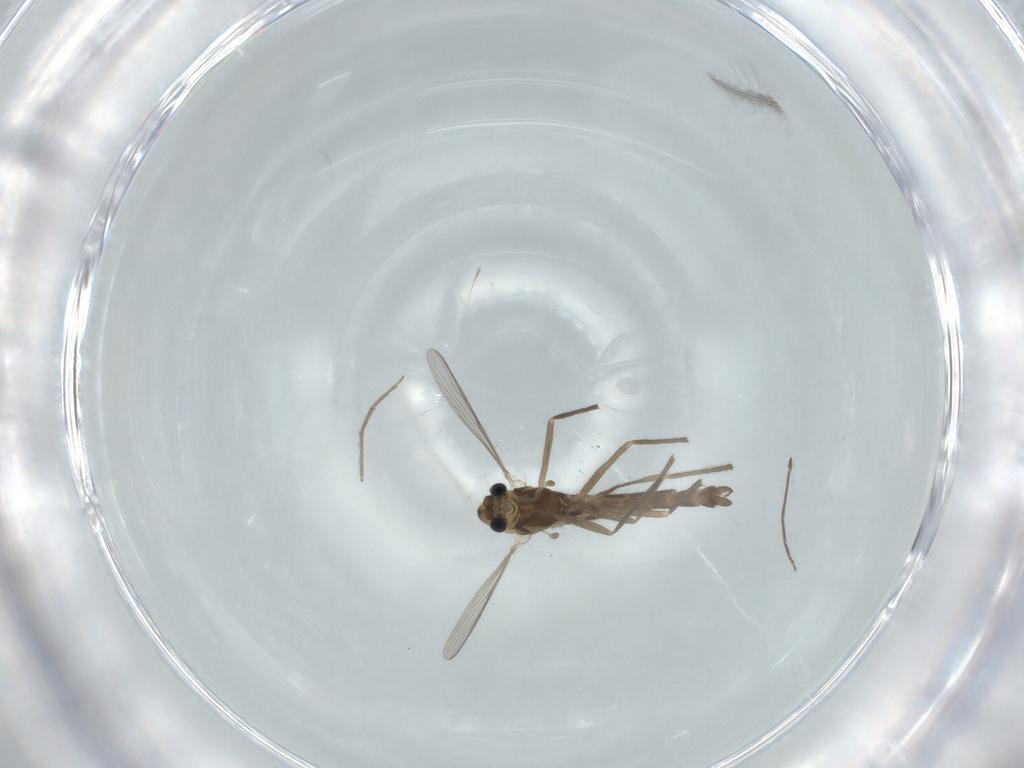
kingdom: Animalia
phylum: Arthropoda
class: Insecta
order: Diptera
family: Chironomidae
